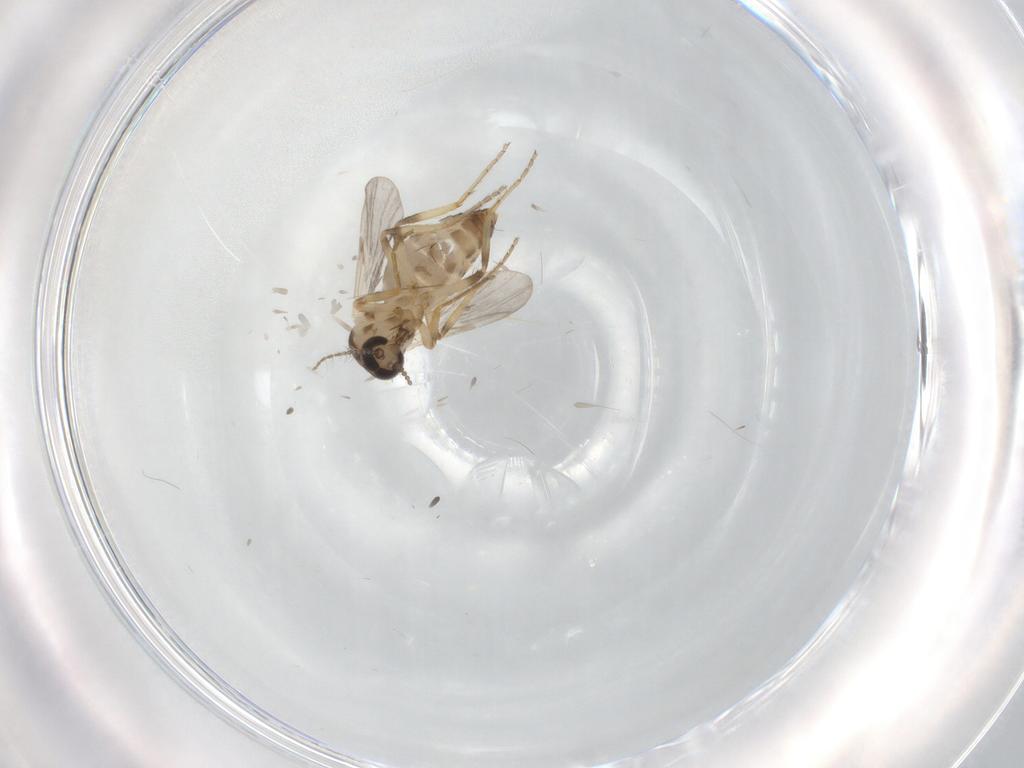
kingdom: Animalia
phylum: Arthropoda
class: Insecta
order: Diptera
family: Ceratopogonidae
